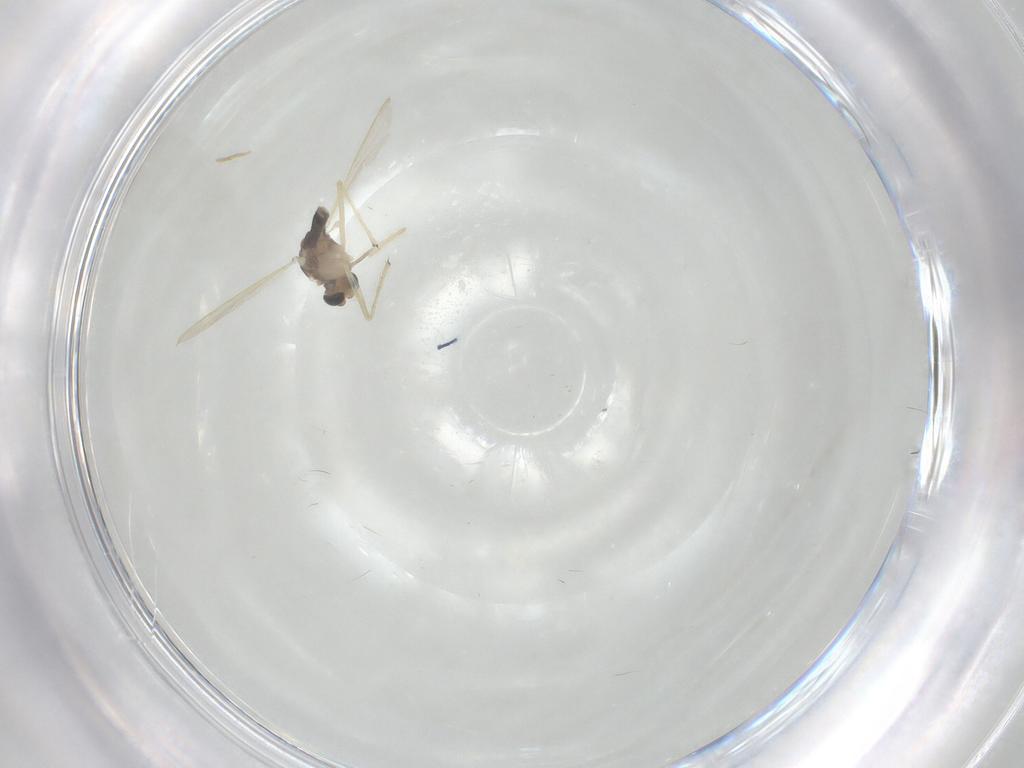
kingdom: Animalia
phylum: Arthropoda
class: Insecta
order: Diptera
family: Chironomidae
